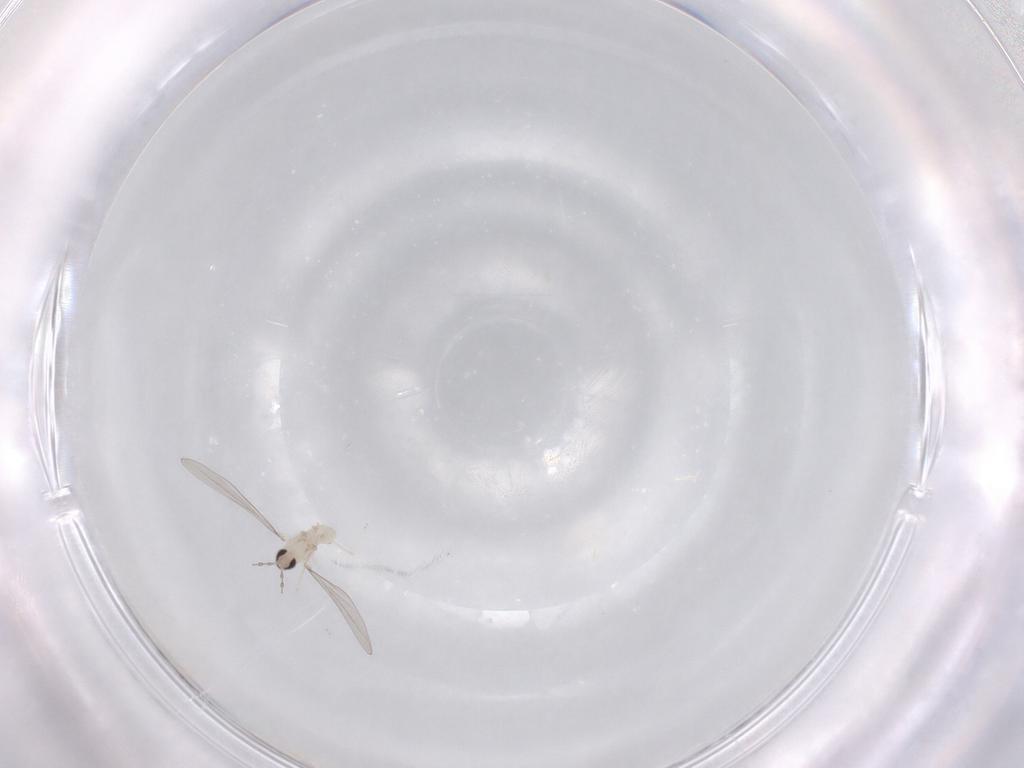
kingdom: Animalia
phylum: Arthropoda
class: Insecta
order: Diptera
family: Cecidomyiidae
